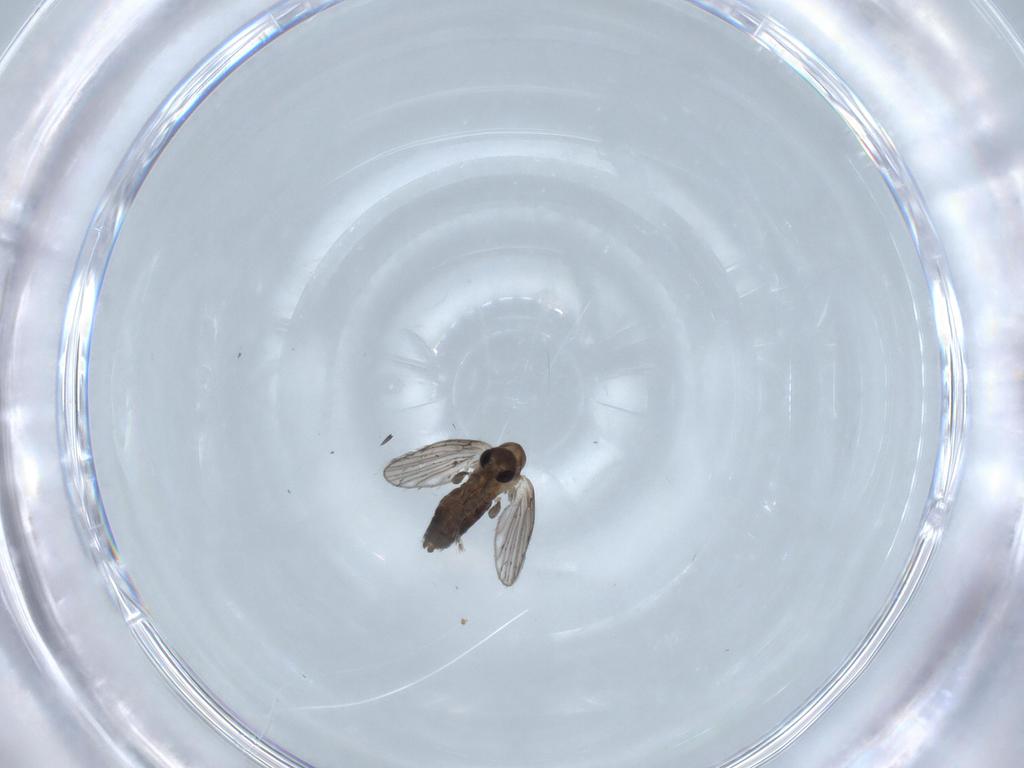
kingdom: Animalia
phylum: Arthropoda
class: Insecta
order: Diptera
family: Psychodidae
